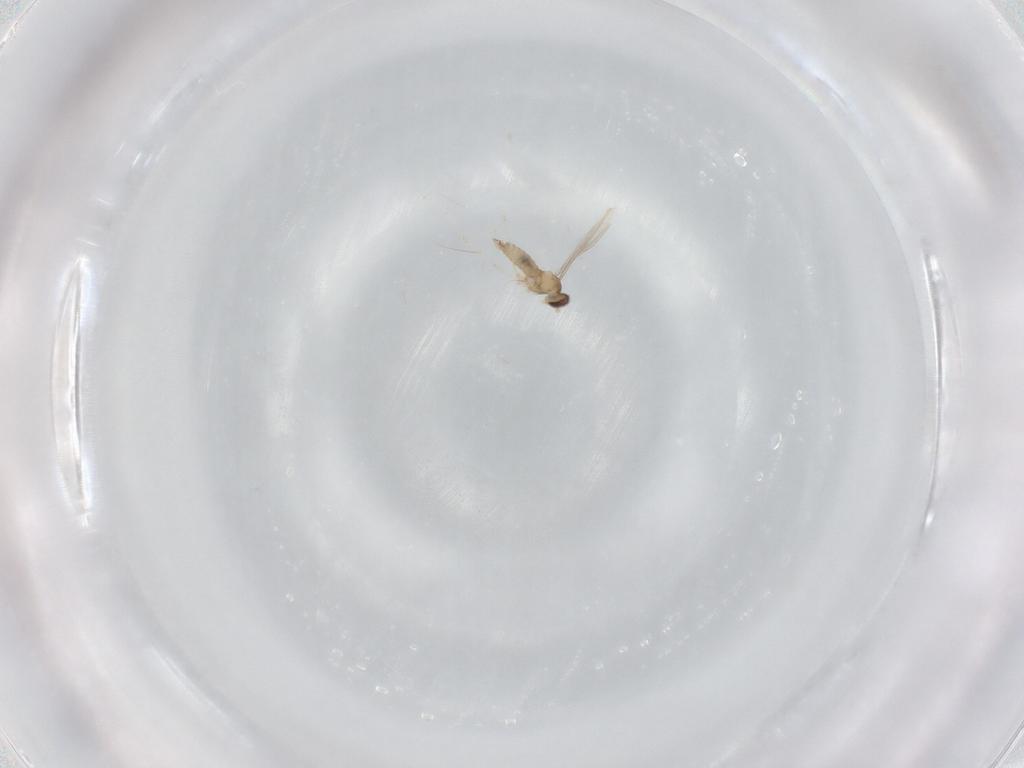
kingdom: Animalia
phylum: Arthropoda
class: Insecta
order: Diptera
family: Cecidomyiidae
